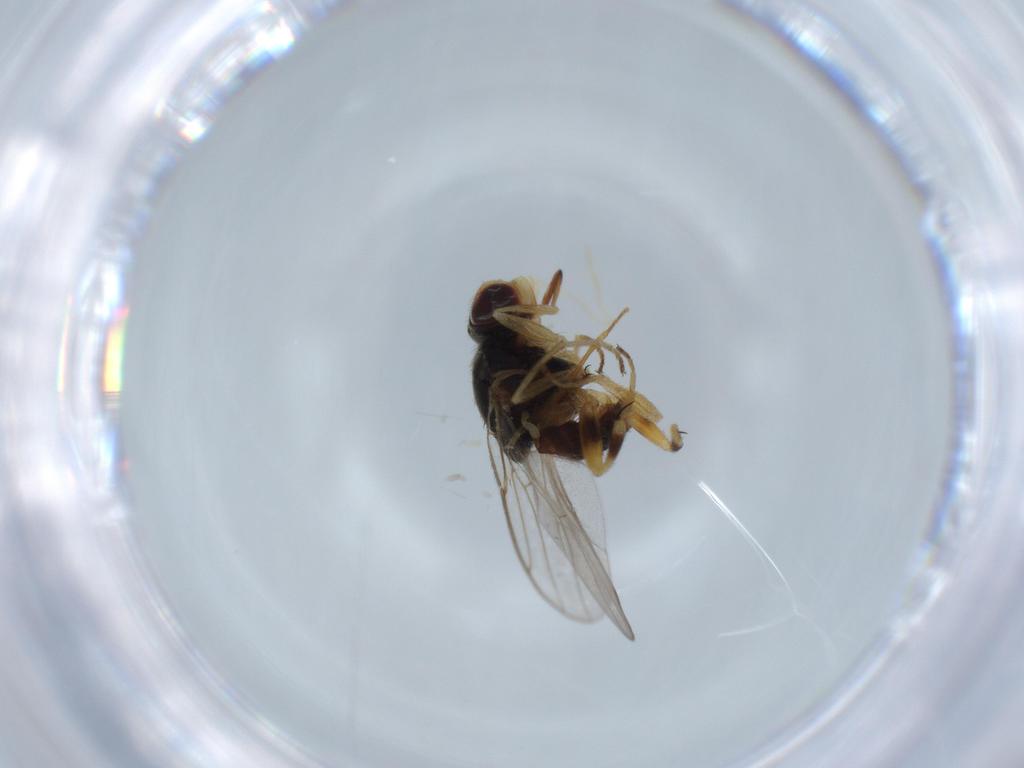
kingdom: Animalia
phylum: Arthropoda
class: Insecta
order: Diptera
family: Chloropidae
